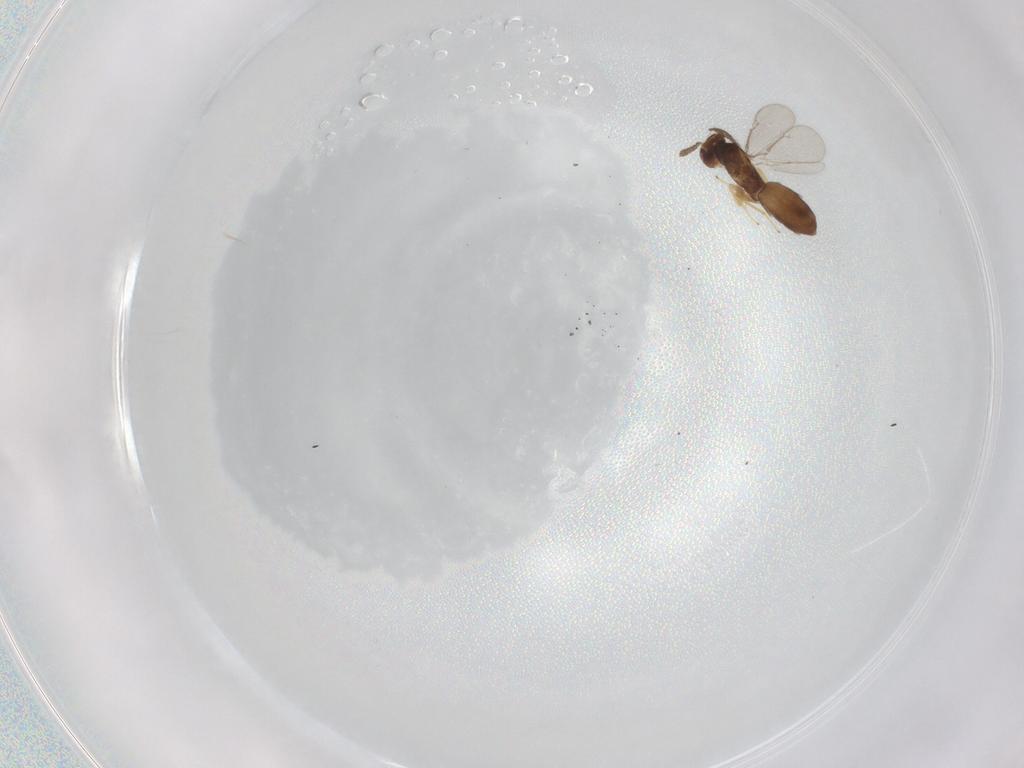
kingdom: Animalia
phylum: Arthropoda
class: Insecta
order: Hymenoptera
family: Eulophidae
